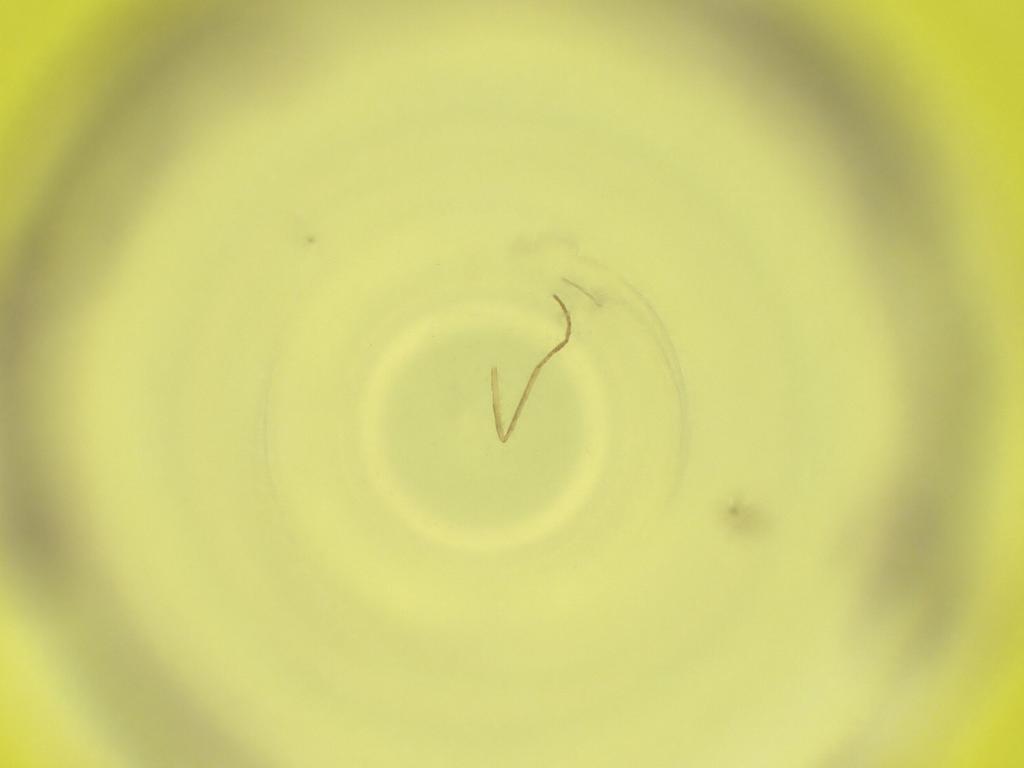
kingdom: Animalia
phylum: Arthropoda
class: Insecta
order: Diptera
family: Cecidomyiidae
